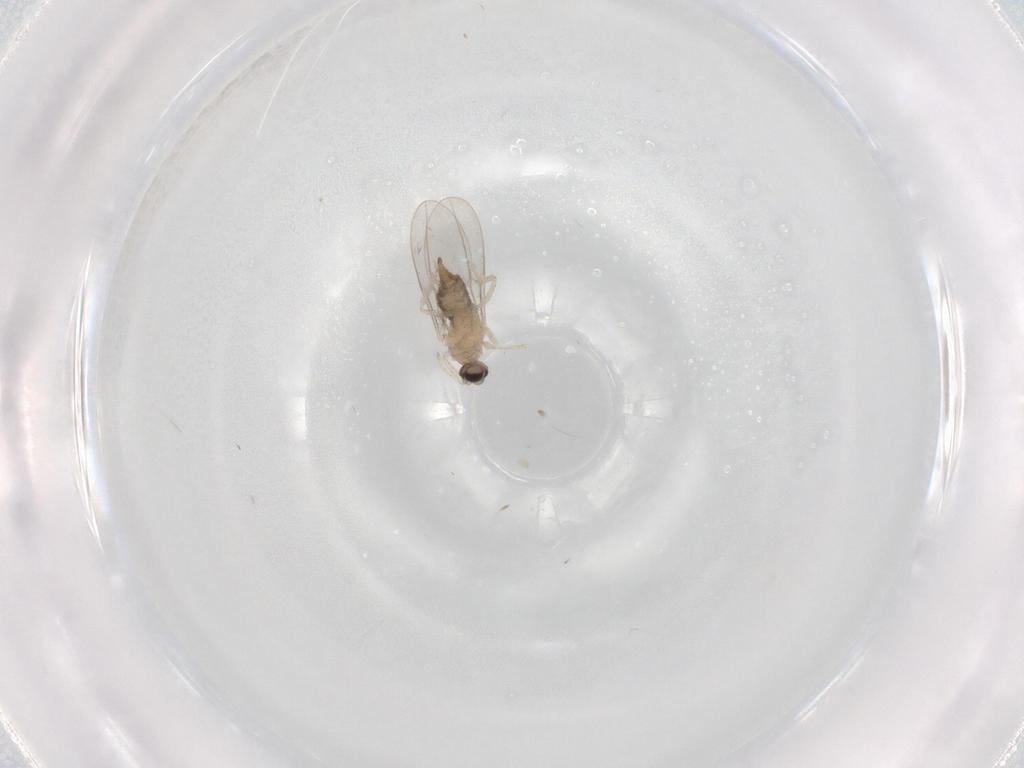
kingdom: Animalia
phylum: Arthropoda
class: Insecta
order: Diptera
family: Cecidomyiidae
